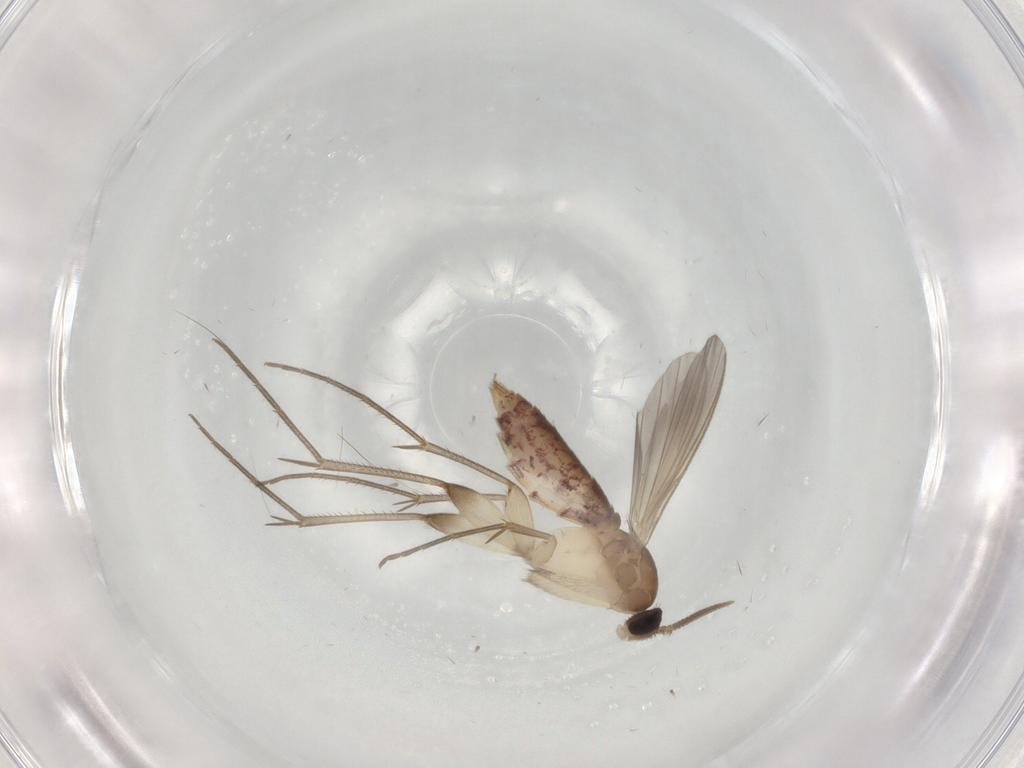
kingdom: Animalia
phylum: Arthropoda
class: Insecta
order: Diptera
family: Mycetophilidae
